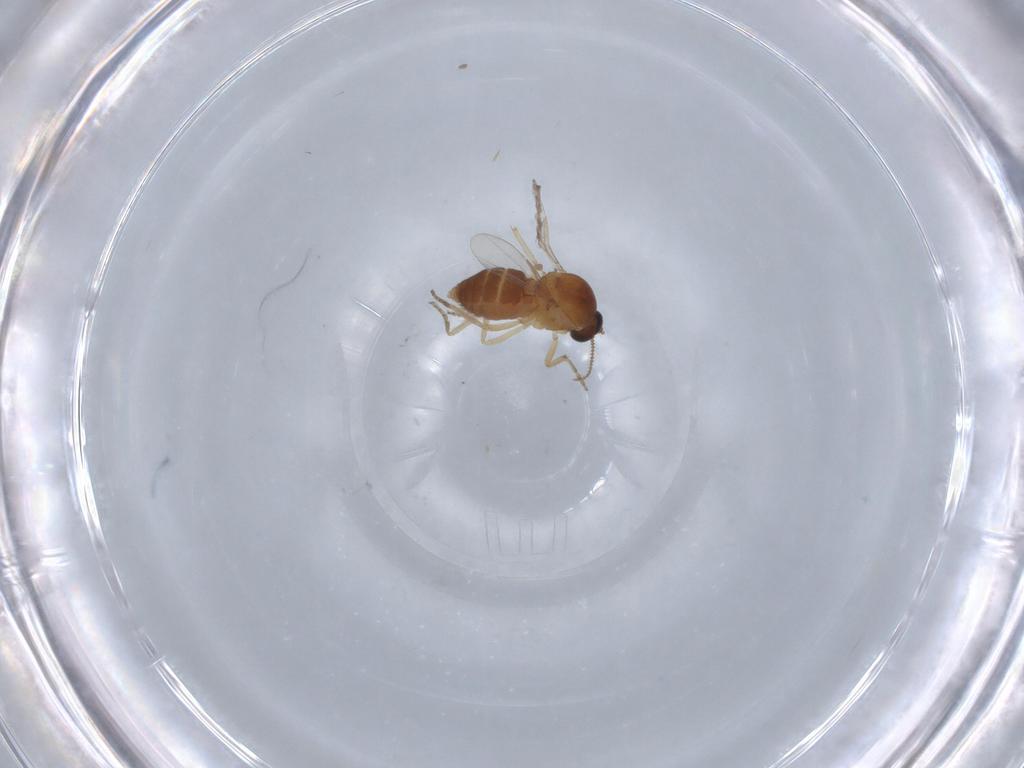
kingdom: Animalia
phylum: Arthropoda
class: Insecta
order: Diptera
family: Ceratopogonidae
